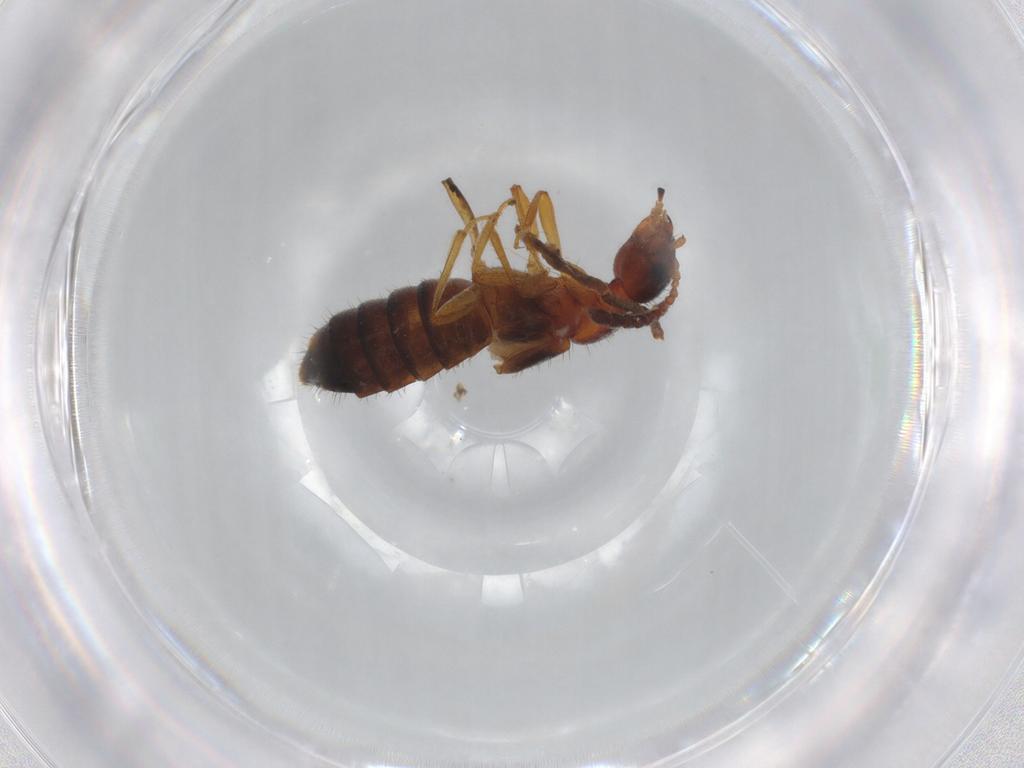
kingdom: Animalia
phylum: Arthropoda
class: Insecta
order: Coleoptera
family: Staphylinidae
